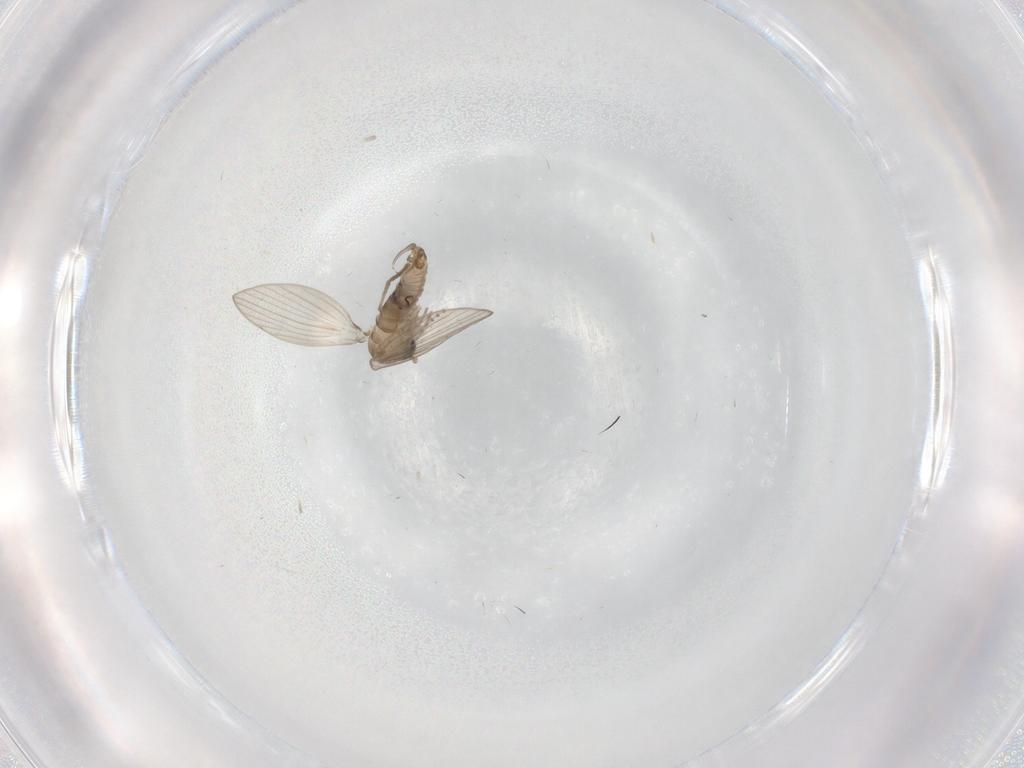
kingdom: Animalia
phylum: Arthropoda
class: Insecta
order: Diptera
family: Psychodidae
